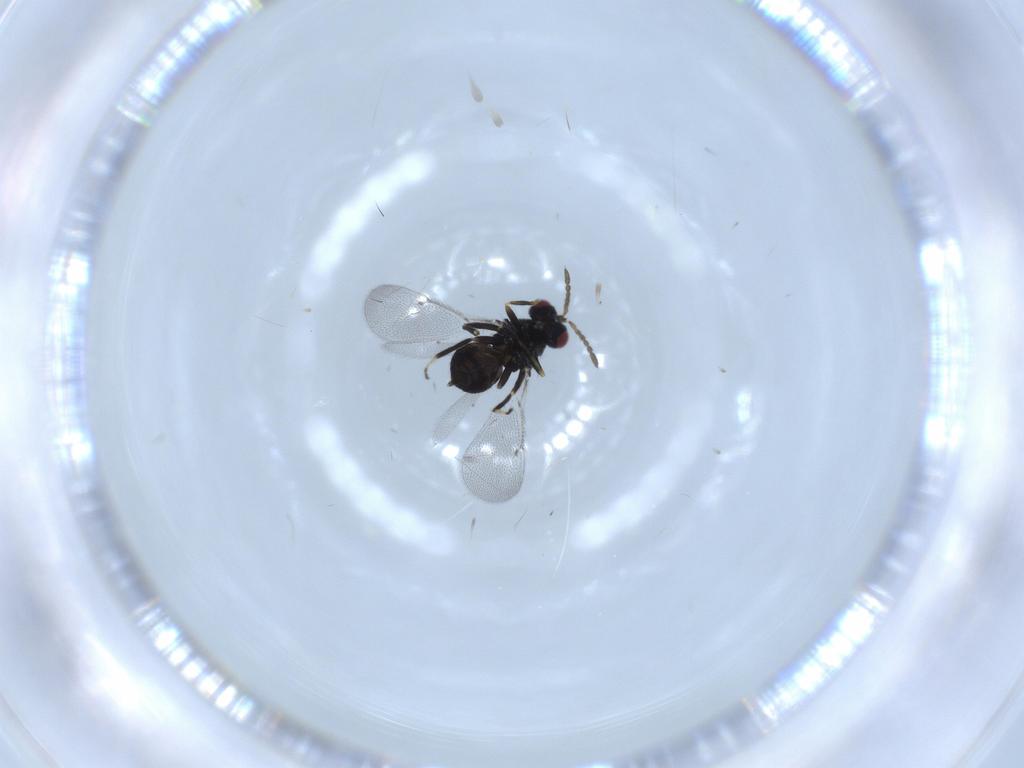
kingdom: Animalia
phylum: Arthropoda
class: Insecta
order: Hymenoptera
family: Eulophidae
